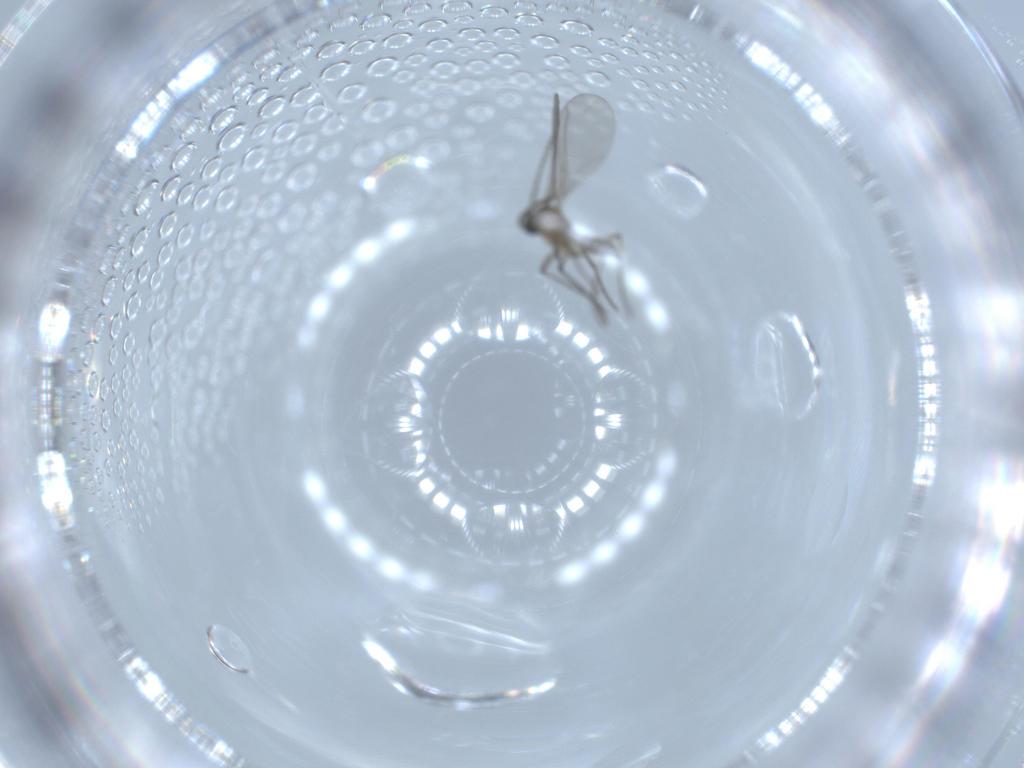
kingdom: Animalia
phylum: Arthropoda
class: Insecta
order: Diptera
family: Sciaridae
